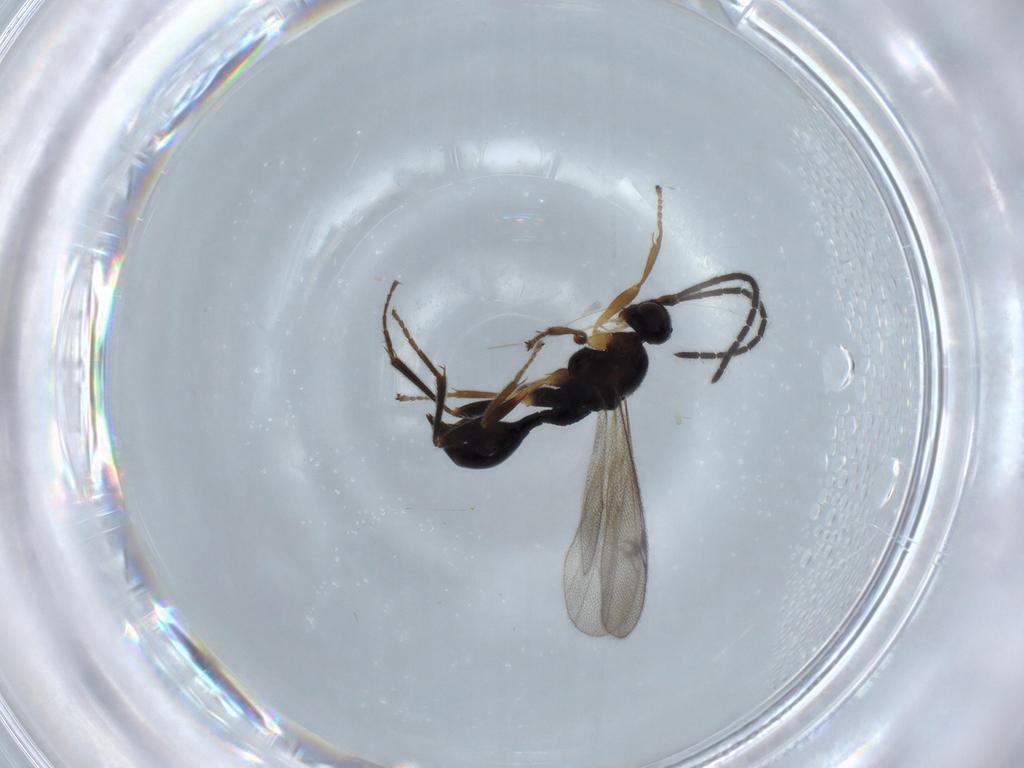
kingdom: Animalia
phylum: Arthropoda
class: Insecta
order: Hymenoptera
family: Proctotrupidae
